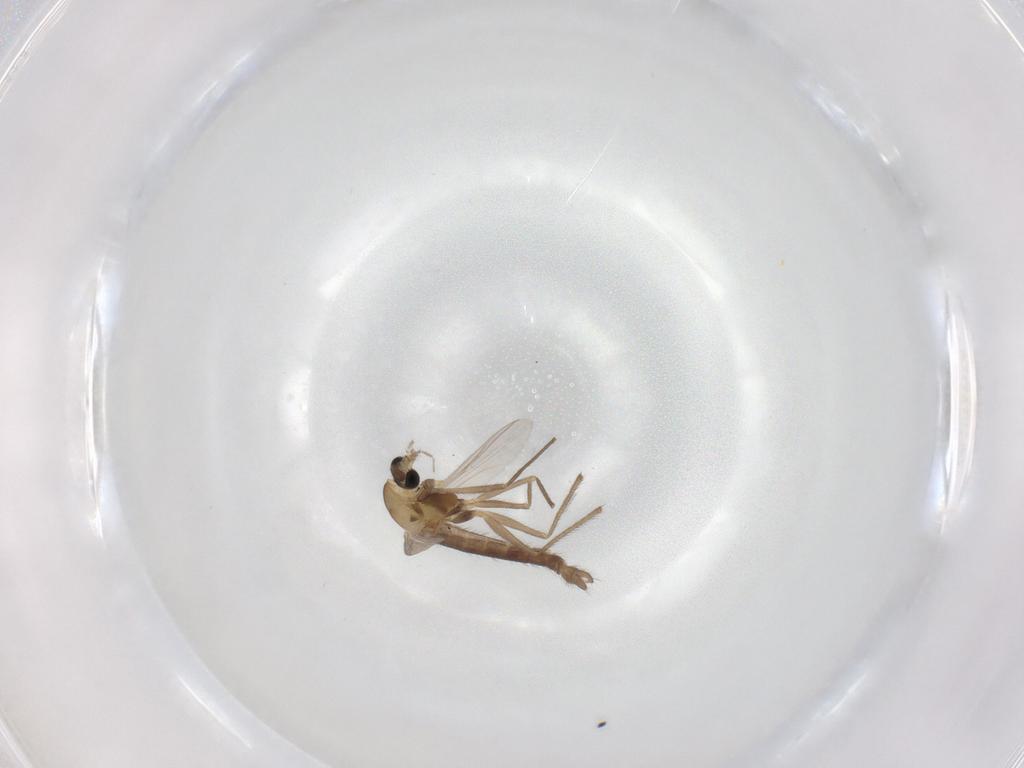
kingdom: Animalia
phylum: Arthropoda
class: Insecta
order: Diptera
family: Chironomidae
